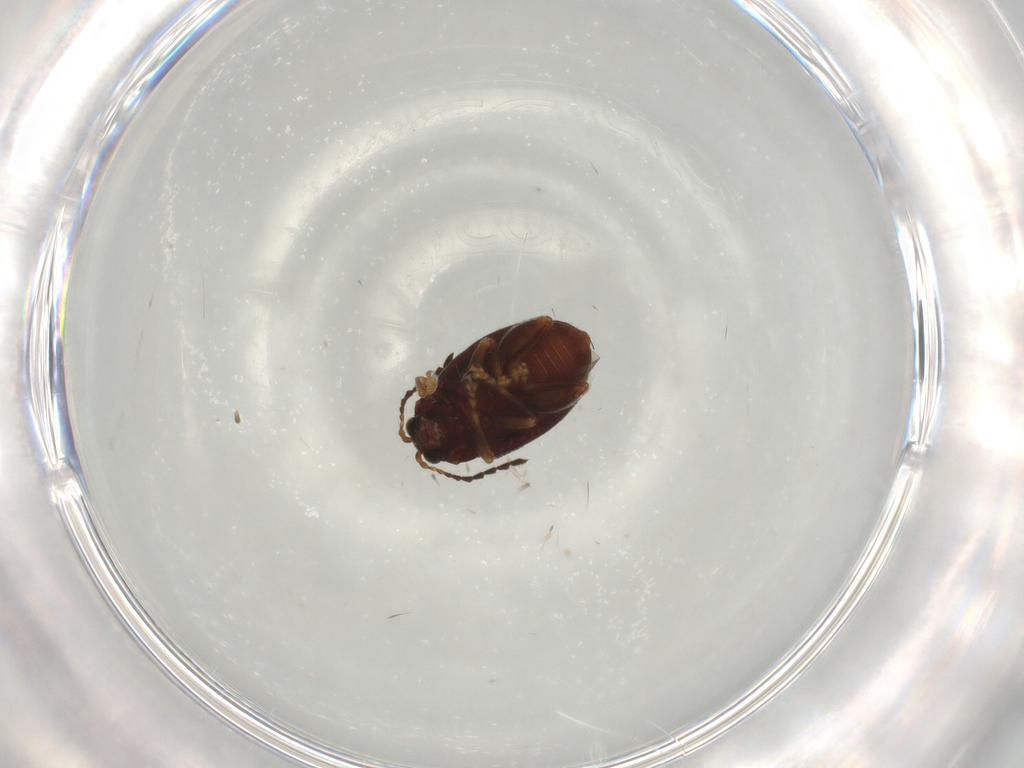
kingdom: Animalia
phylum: Arthropoda
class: Insecta
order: Coleoptera
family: Chrysomelidae
